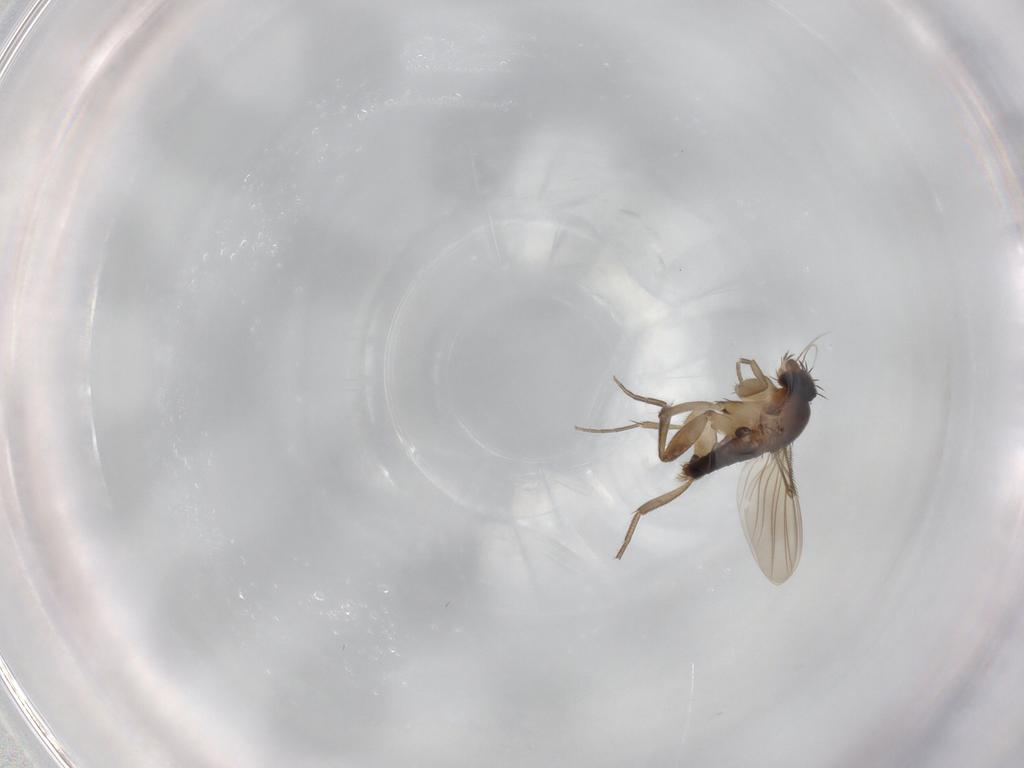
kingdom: Animalia
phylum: Arthropoda
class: Insecta
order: Diptera
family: Phoridae
